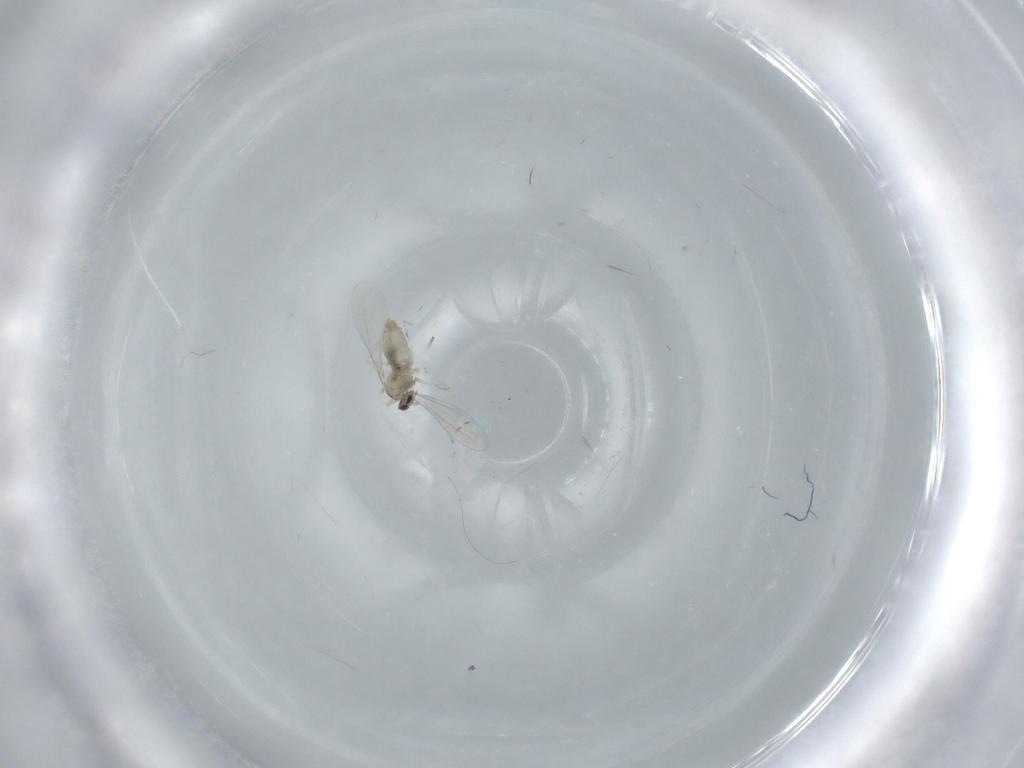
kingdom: Animalia
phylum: Arthropoda
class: Insecta
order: Diptera
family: Cecidomyiidae
